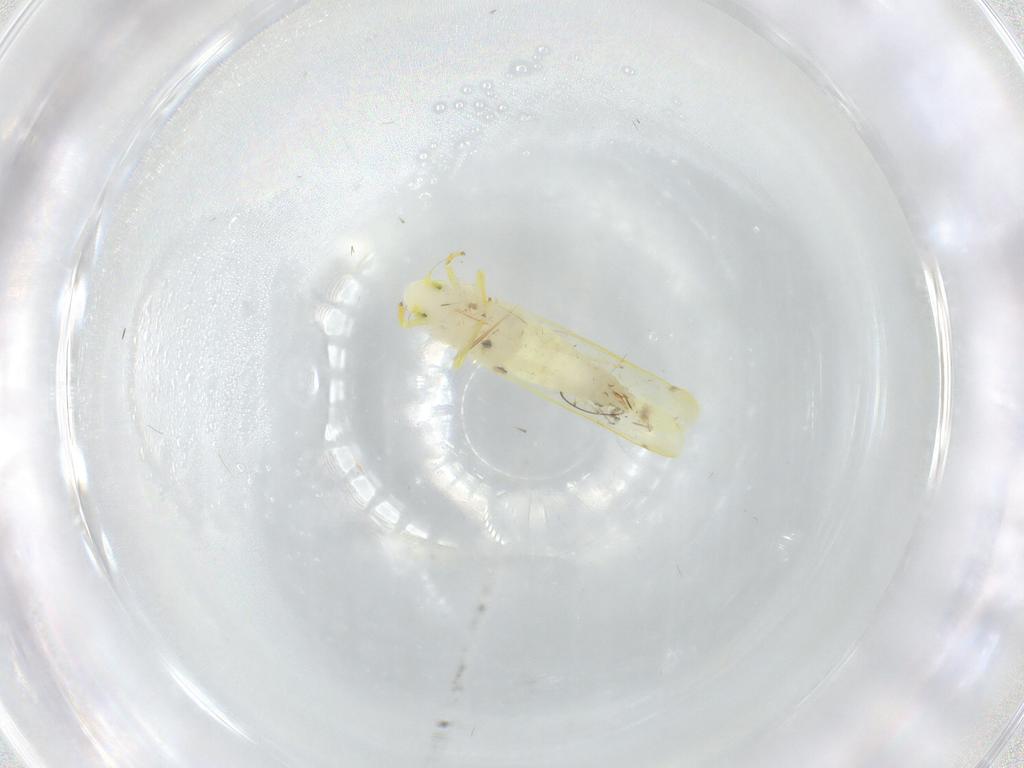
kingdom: Animalia
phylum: Arthropoda
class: Insecta
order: Hemiptera
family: Cicadellidae
